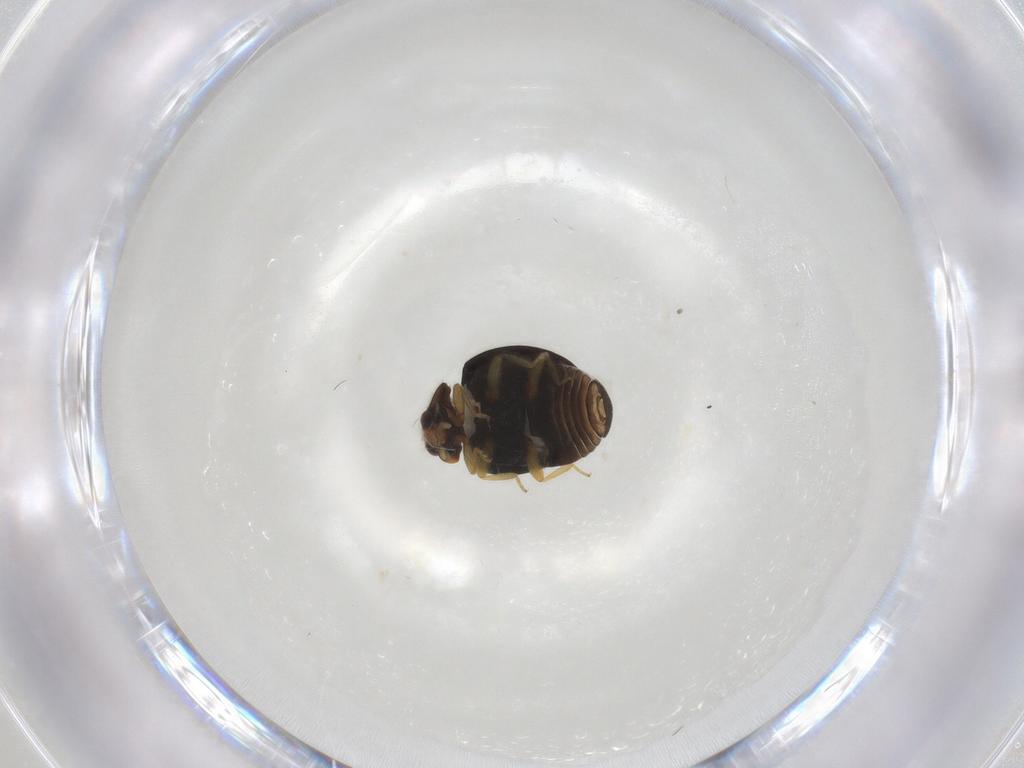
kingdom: Animalia
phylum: Arthropoda
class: Insecta
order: Coleoptera
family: Coccinellidae
